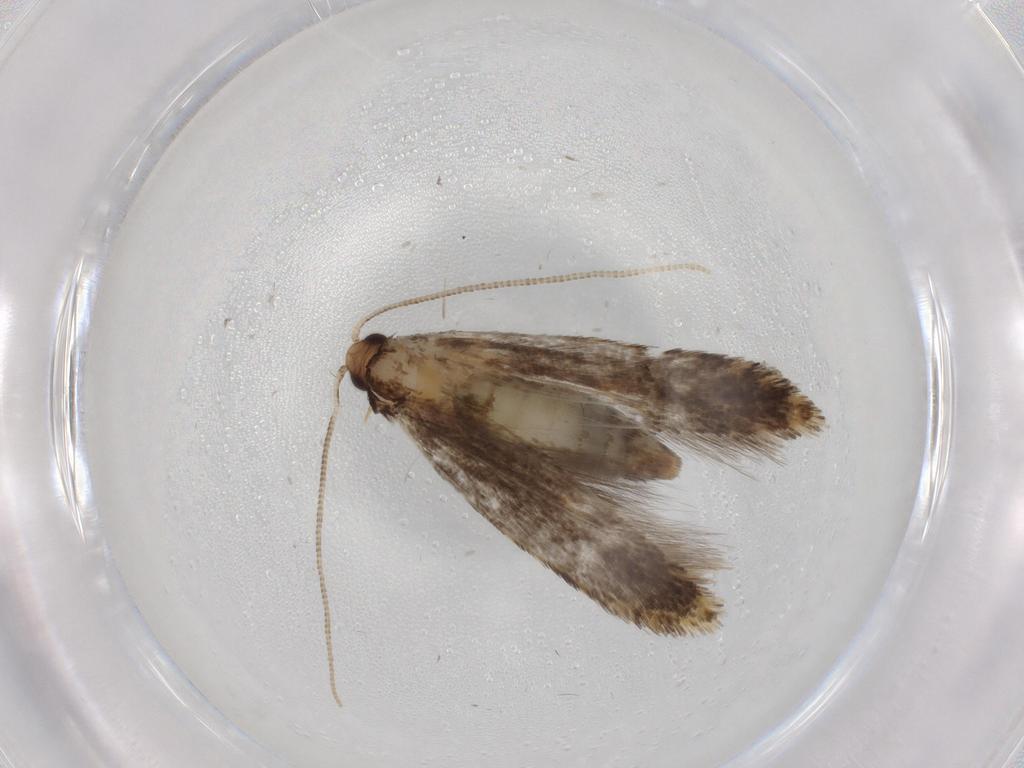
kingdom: Animalia
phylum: Arthropoda
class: Insecta
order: Lepidoptera
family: Tineidae
